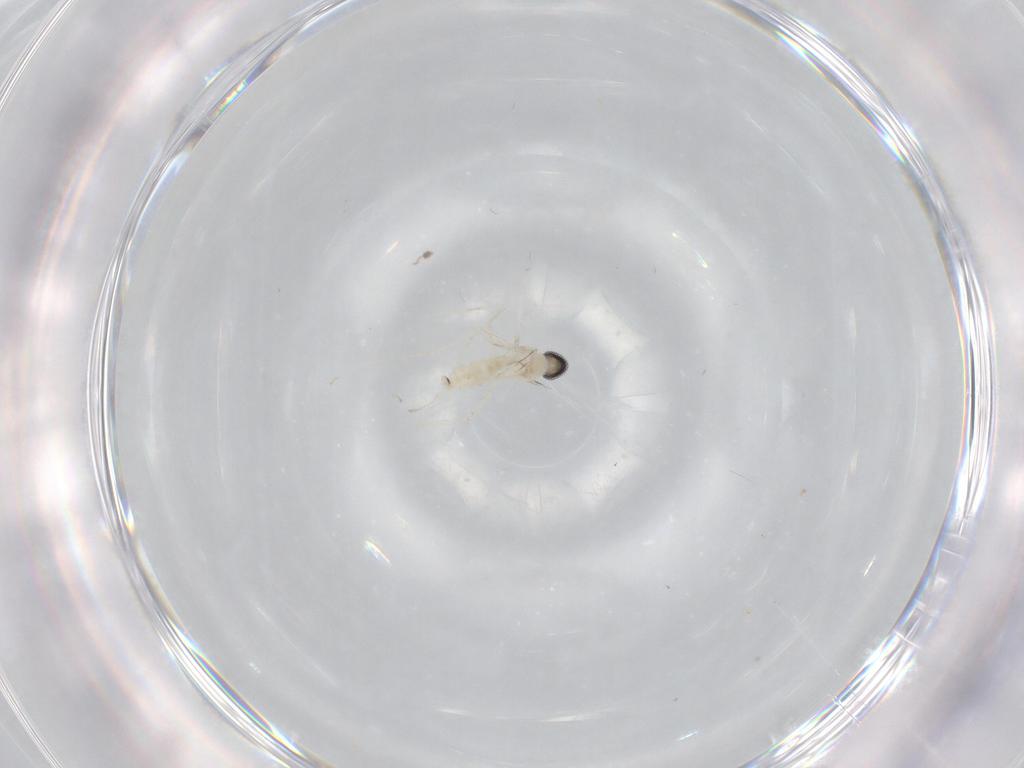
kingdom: Animalia
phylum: Arthropoda
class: Insecta
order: Diptera
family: Cecidomyiidae
